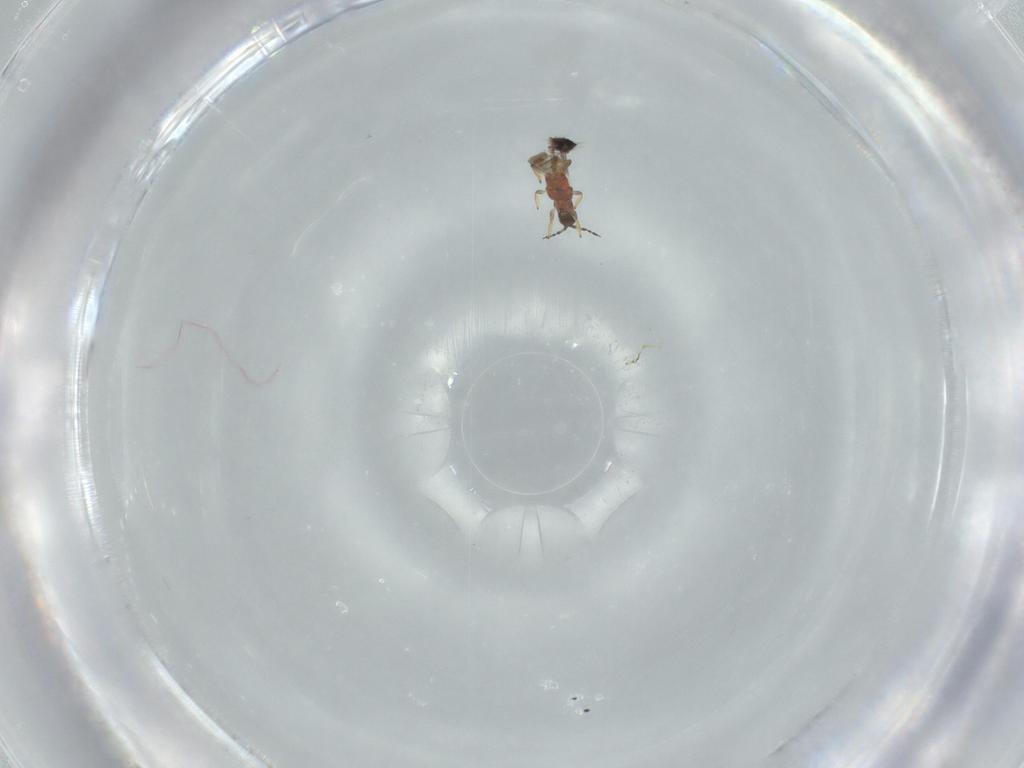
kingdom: Animalia
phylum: Arthropoda
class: Insecta
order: Thysanoptera
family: Thripidae
